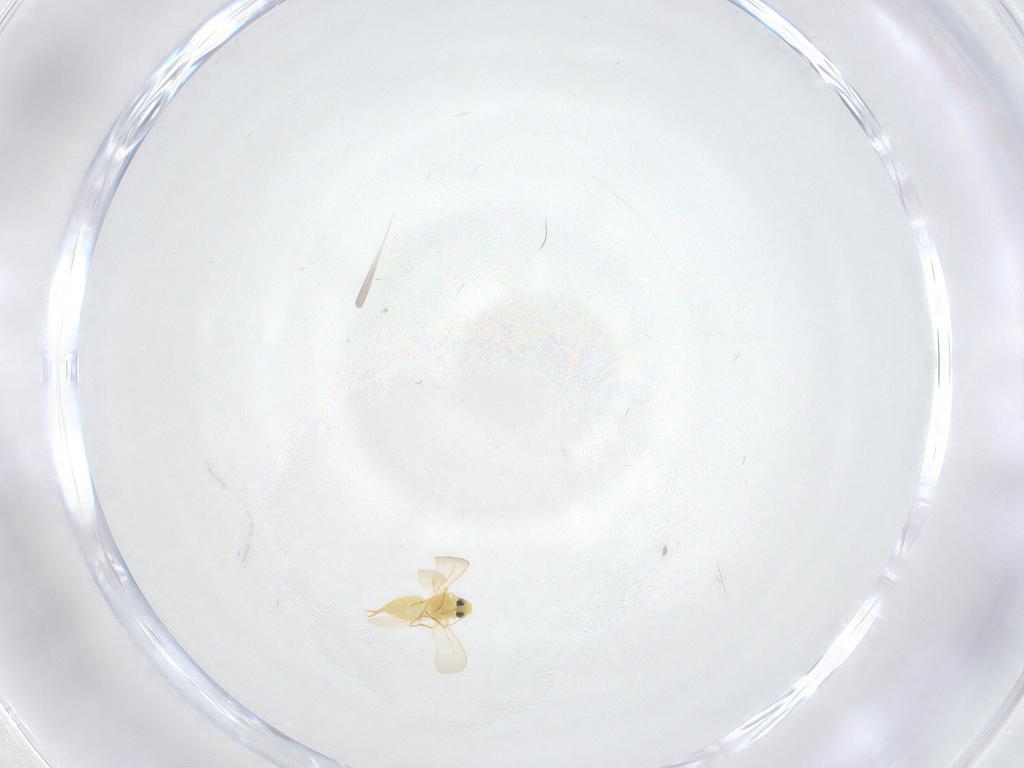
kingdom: Animalia
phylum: Arthropoda
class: Insecta
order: Hemiptera
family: Aleyrodidae
